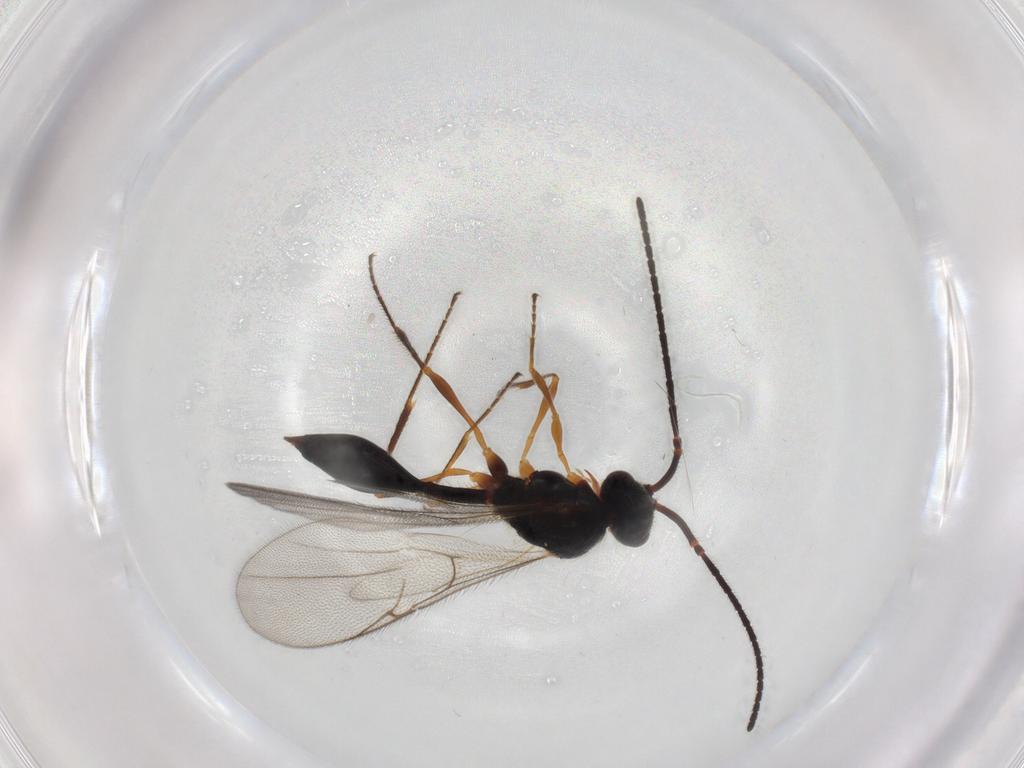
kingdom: Animalia
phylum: Arthropoda
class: Insecta
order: Hymenoptera
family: Diapriidae
